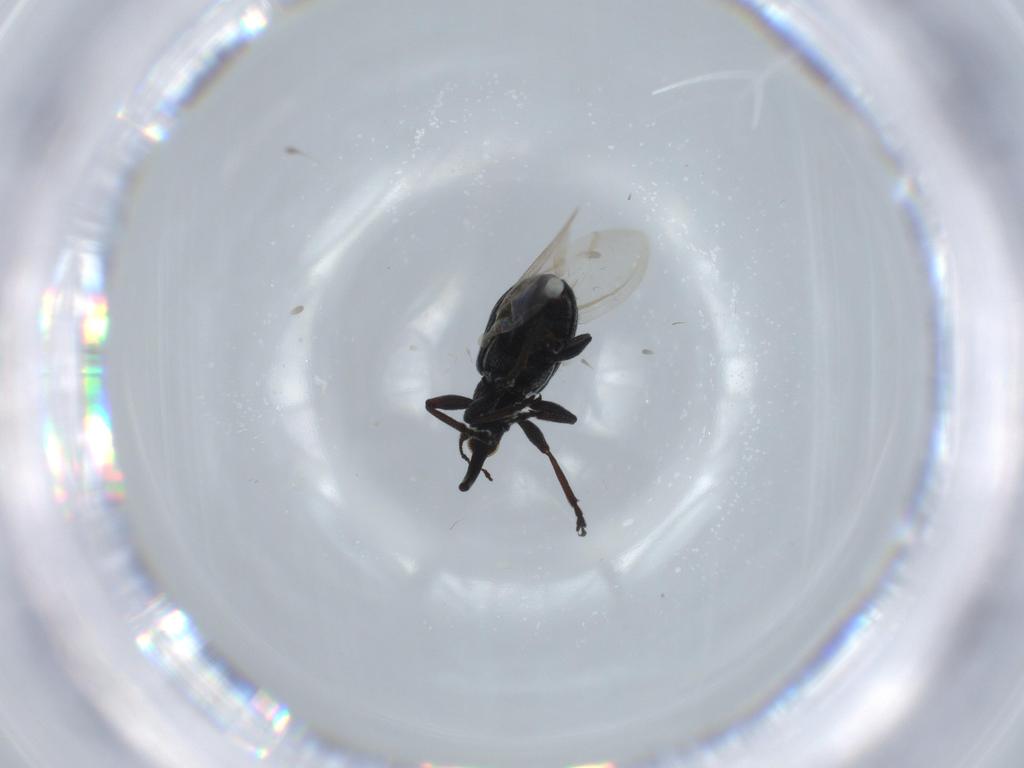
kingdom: Animalia
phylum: Arthropoda
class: Insecta
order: Coleoptera
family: Brentidae
